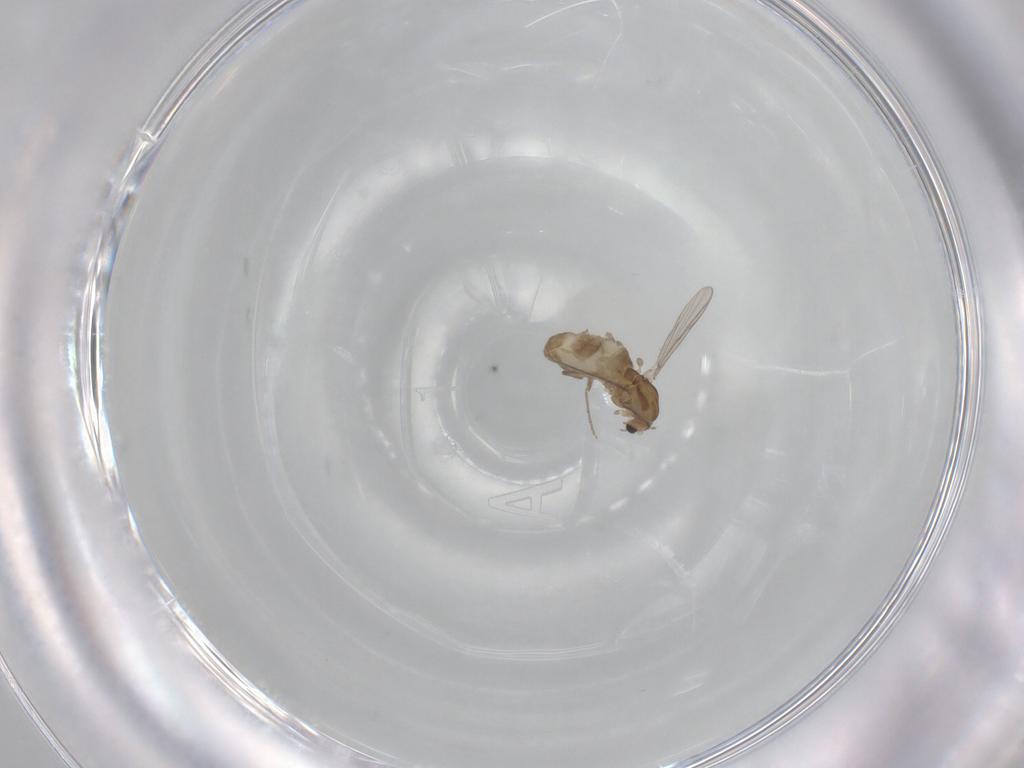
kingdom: Animalia
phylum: Arthropoda
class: Insecta
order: Diptera
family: Chironomidae
